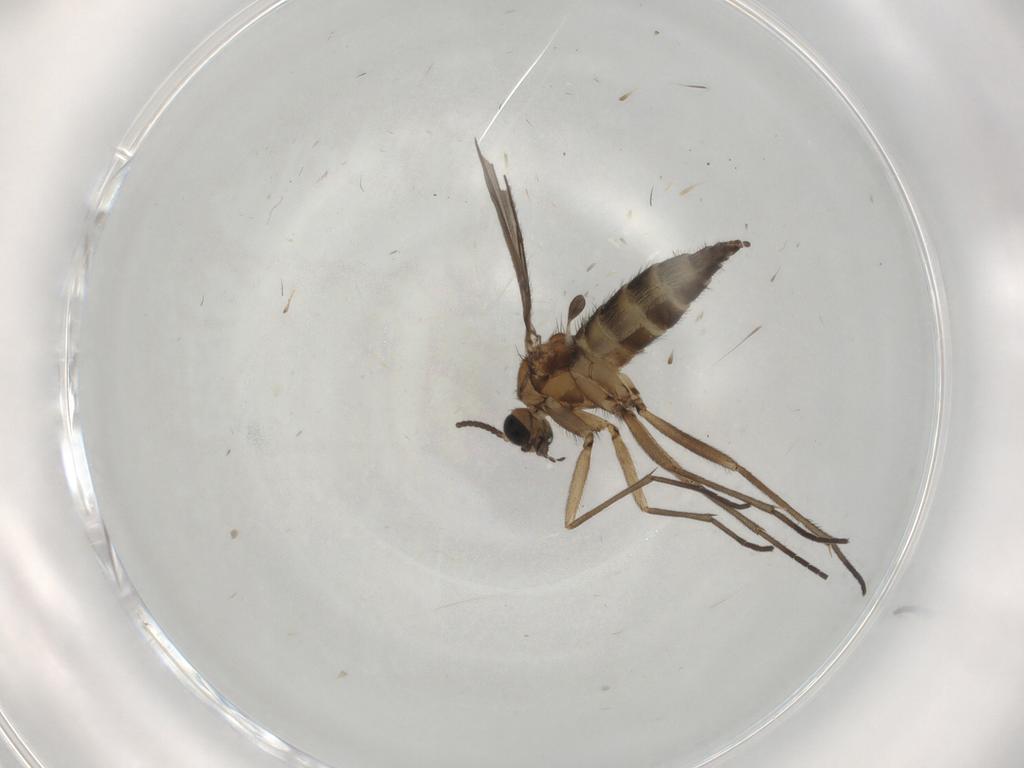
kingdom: Animalia
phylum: Arthropoda
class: Insecta
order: Diptera
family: Sciaridae
